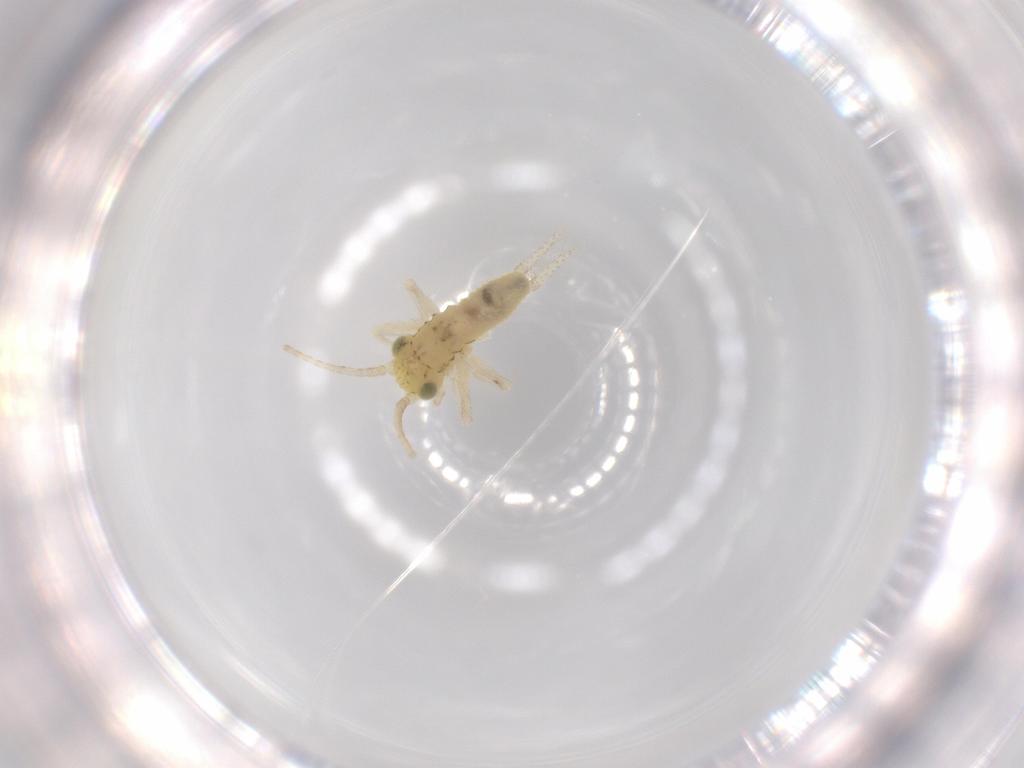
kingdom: Animalia
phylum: Arthropoda
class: Insecta
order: Orthoptera
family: Trigonidiidae
